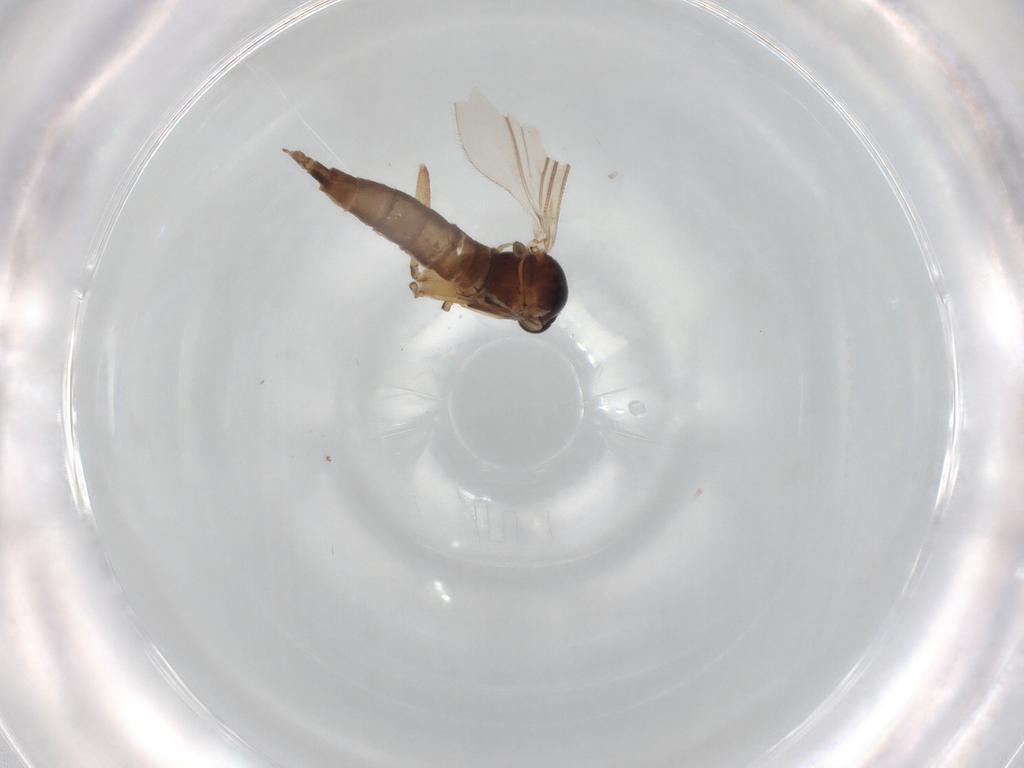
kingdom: Animalia
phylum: Arthropoda
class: Insecta
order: Diptera
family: Sciaridae
